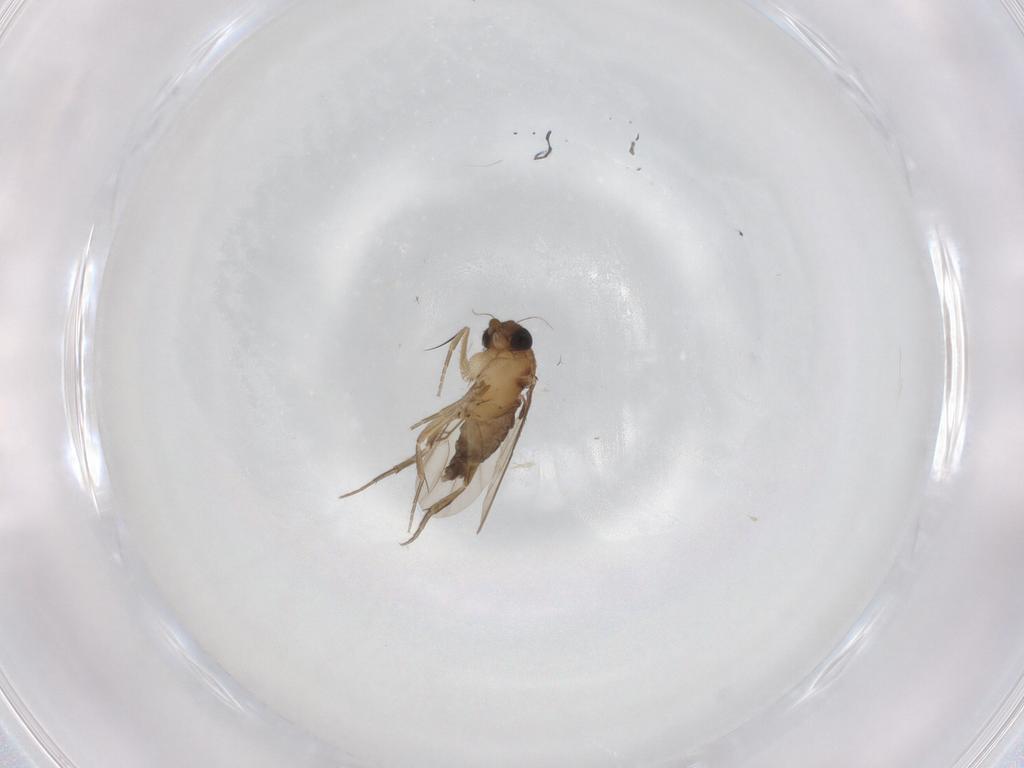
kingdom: Animalia
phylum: Arthropoda
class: Insecta
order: Diptera
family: Phoridae
